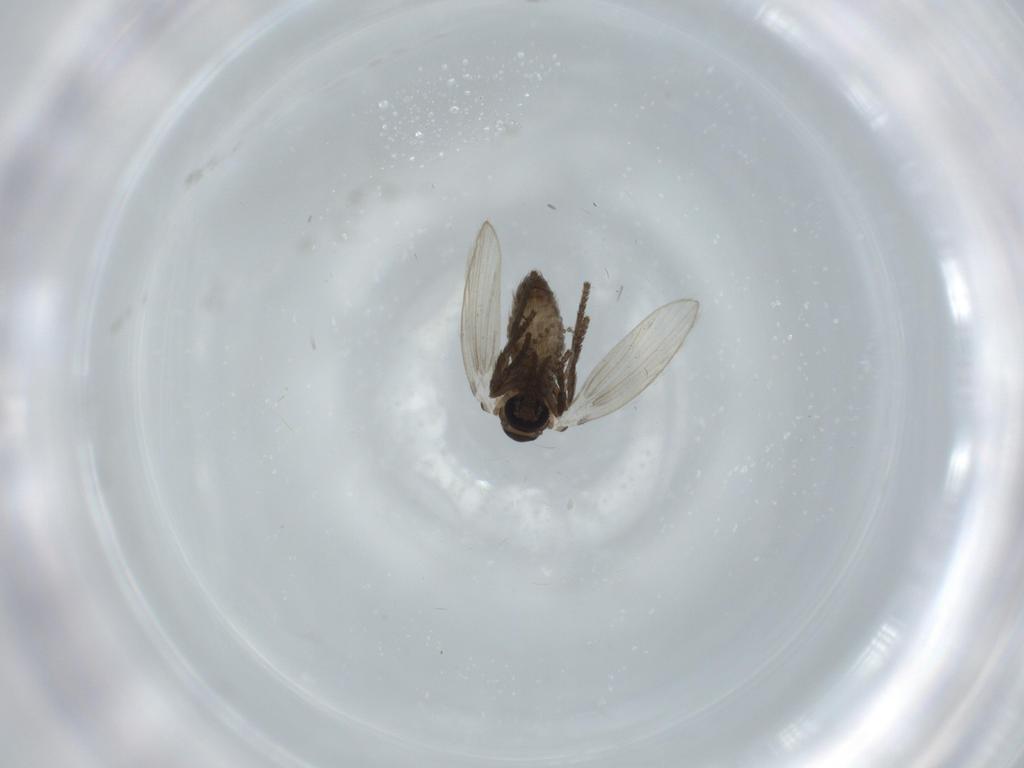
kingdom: Animalia
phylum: Arthropoda
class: Insecta
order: Diptera
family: Psychodidae
